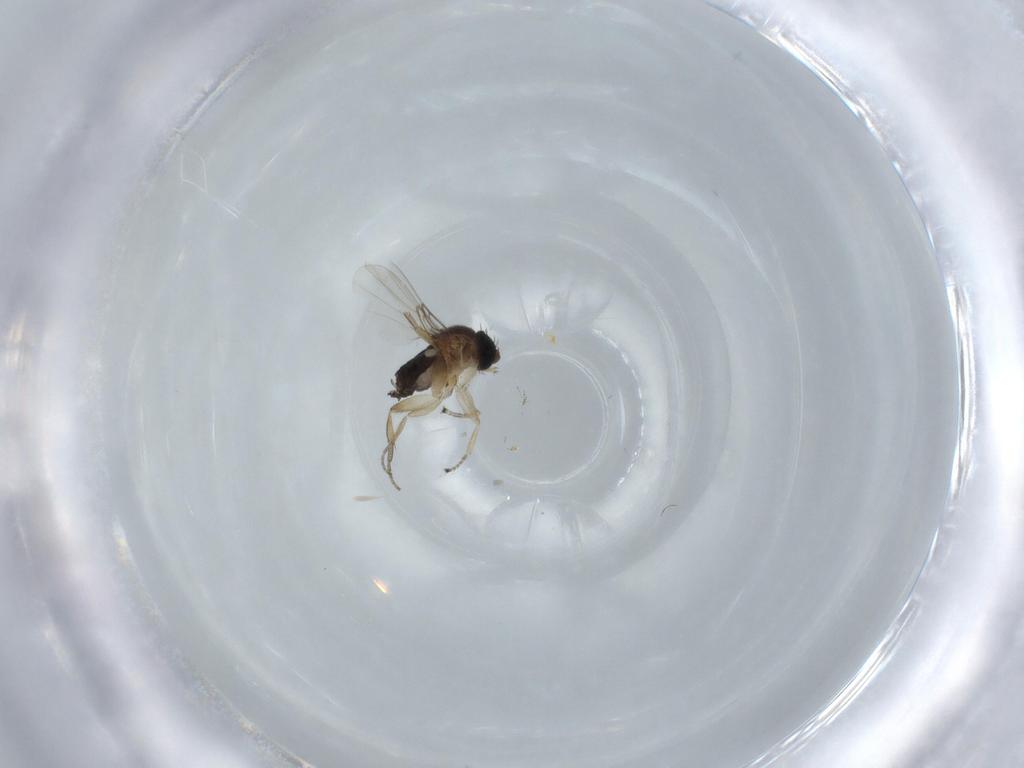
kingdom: Animalia
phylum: Arthropoda
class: Insecta
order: Diptera
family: Phoridae
